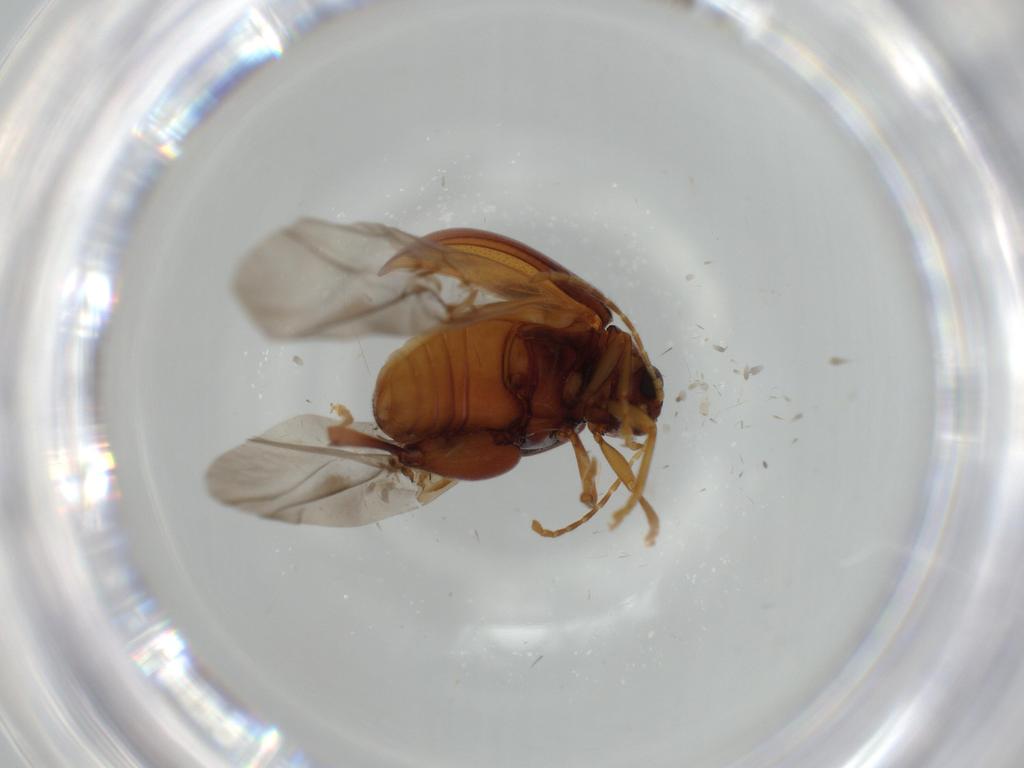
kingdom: Animalia
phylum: Arthropoda
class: Insecta
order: Coleoptera
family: Chrysomelidae
